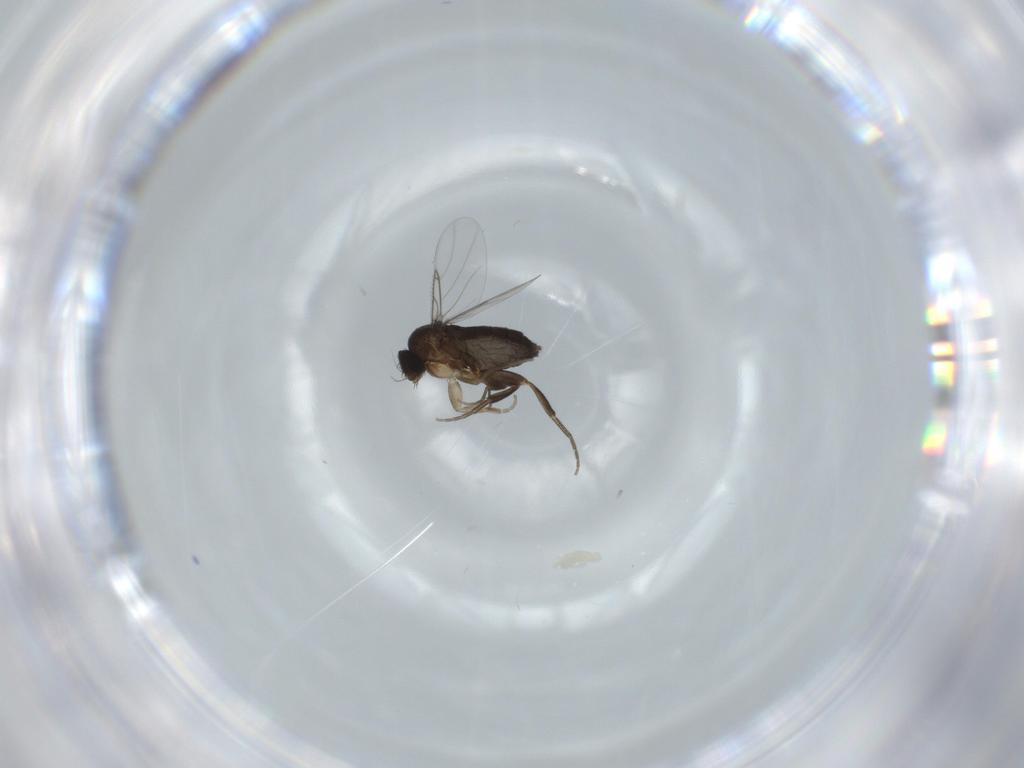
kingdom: Animalia
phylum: Arthropoda
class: Insecta
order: Diptera
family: Phoridae
